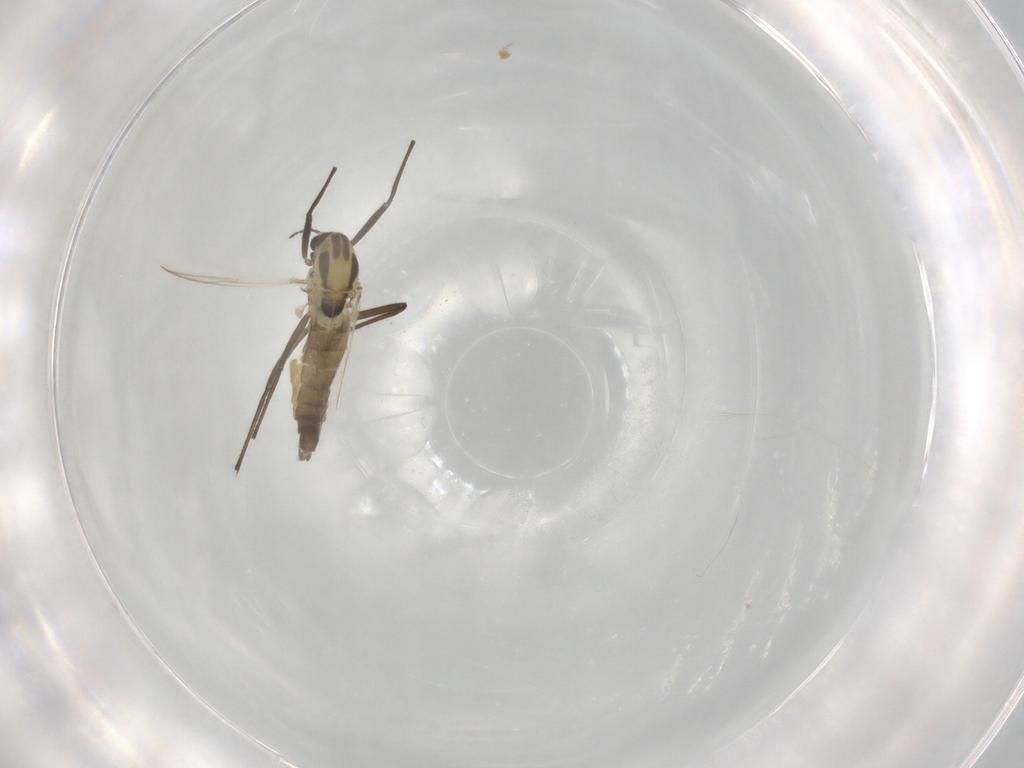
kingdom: Animalia
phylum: Arthropoda
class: Insecta
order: Diptera
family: Chironomidae
